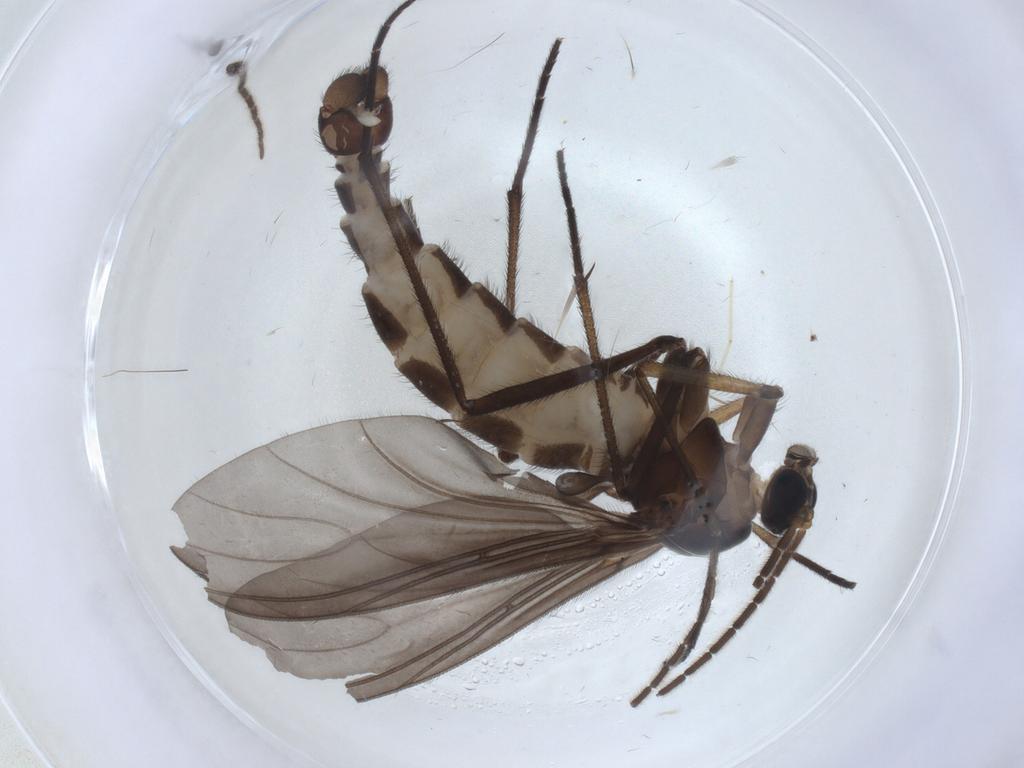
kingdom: Animalia
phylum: Arthropoda
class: Insecta
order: Diptera
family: Sciaridae
